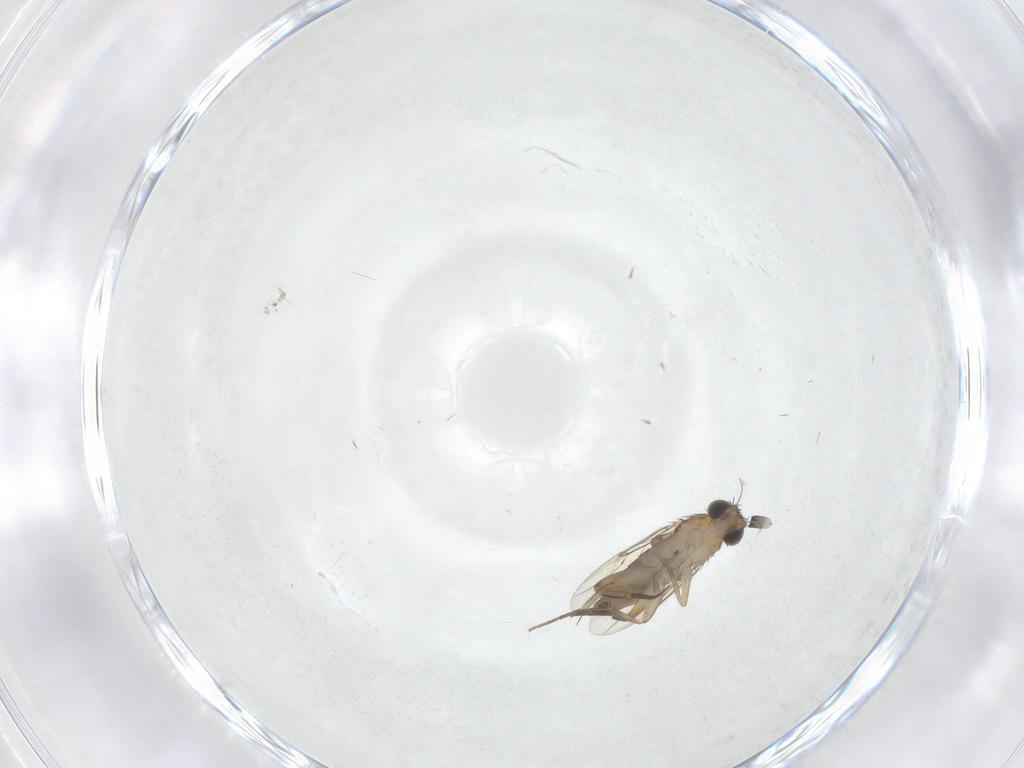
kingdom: Animalia
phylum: Arthropoda
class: Insecta
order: Diptera
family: Phoridae
